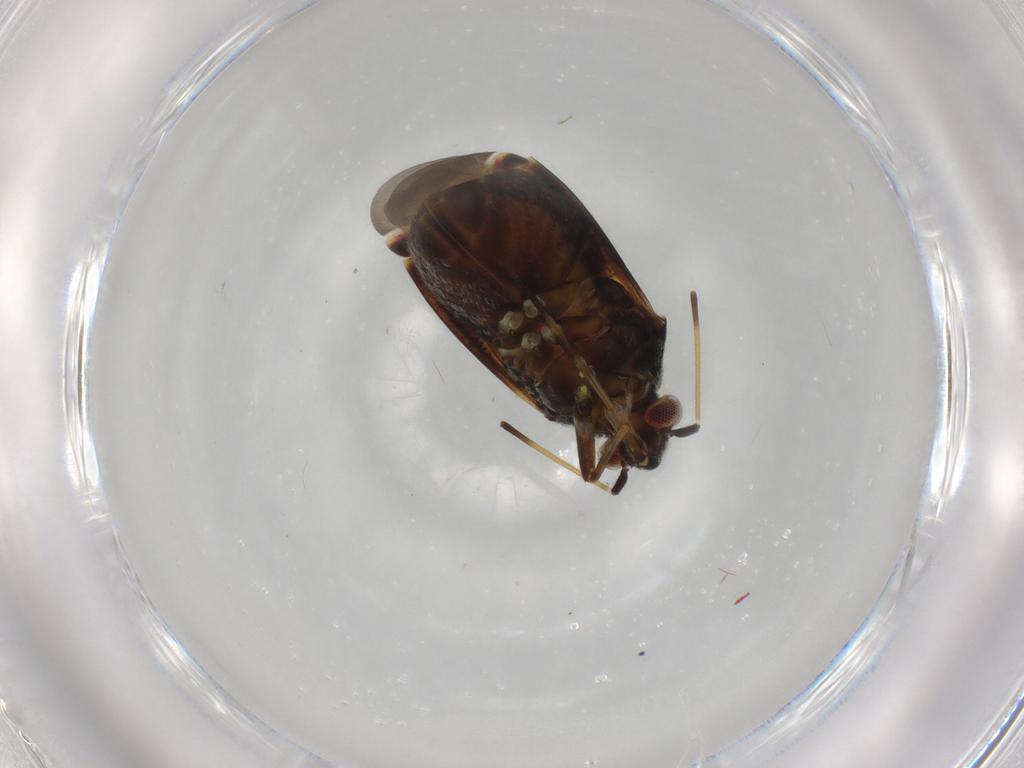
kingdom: Animalia
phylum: Arthropoda
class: Insecta
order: Hemiptera
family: Miridae
